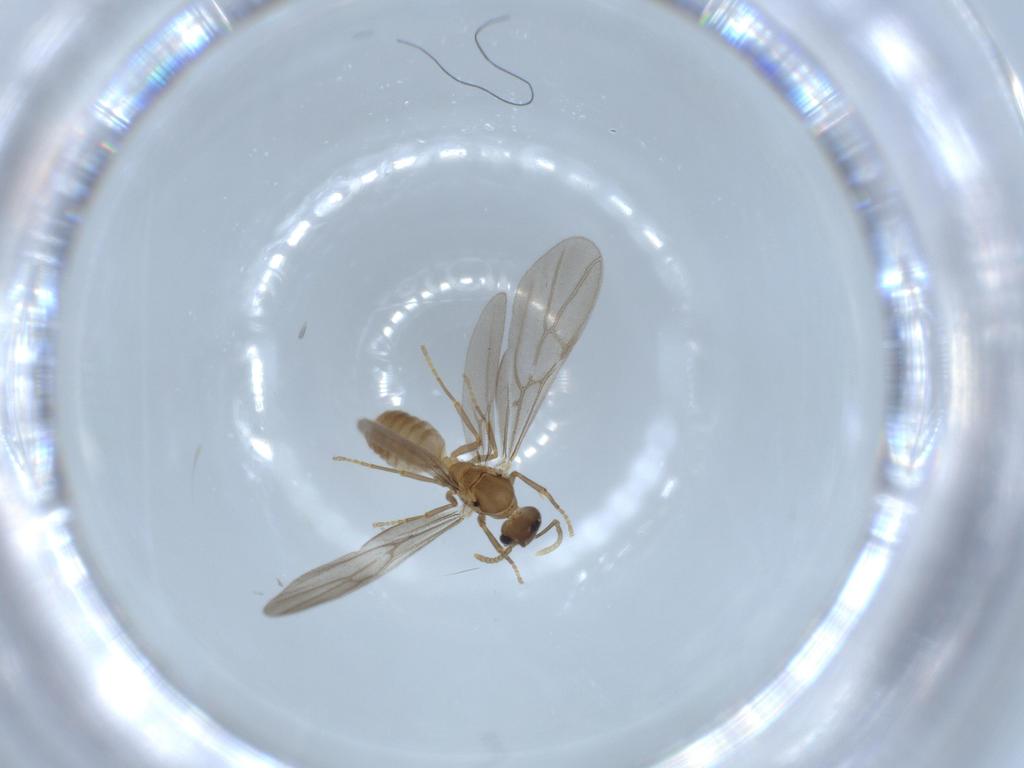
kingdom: Animalia
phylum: Arthropoda
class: Insecta
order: Hymenoptera
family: Formicidae
